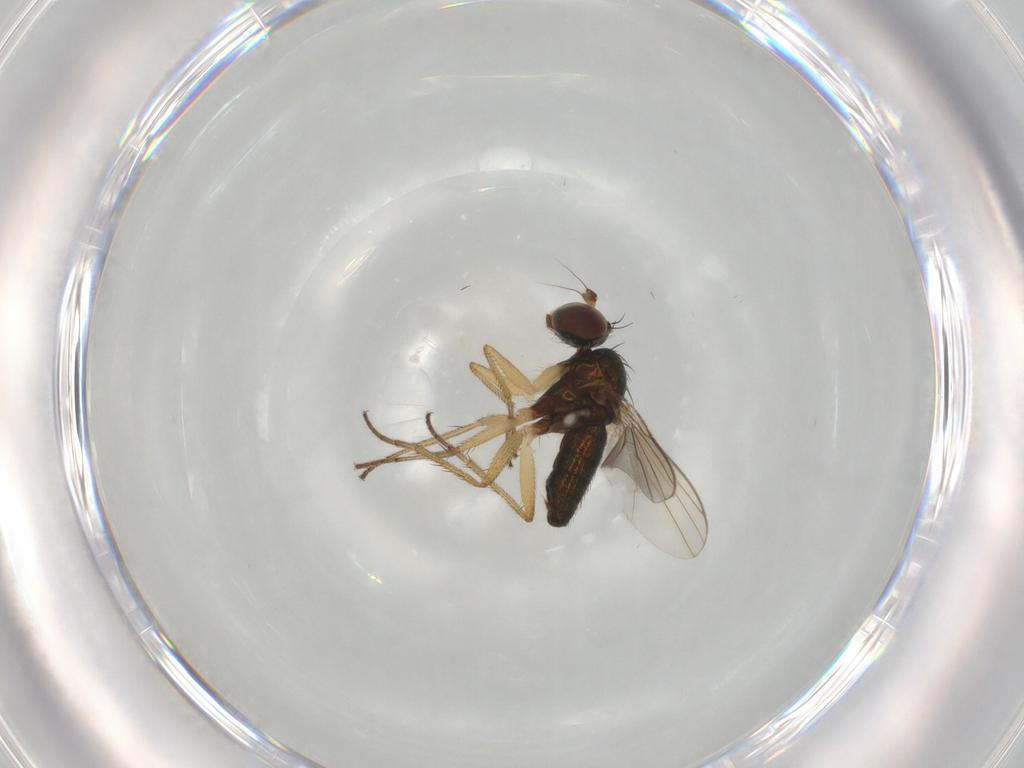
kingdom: Animalia
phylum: Arthropoda
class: Insecta
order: Diptera
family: Dolichopodidae
